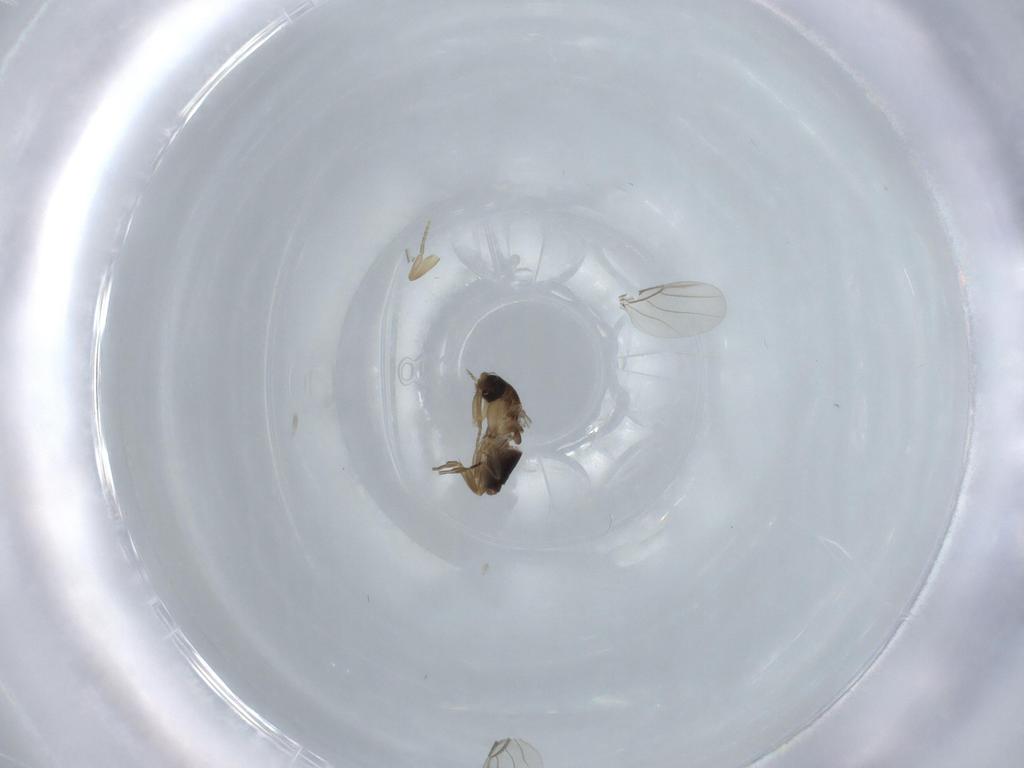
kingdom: Animalia
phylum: Arthropoda
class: Insecta
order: Diptera
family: Phoridae
